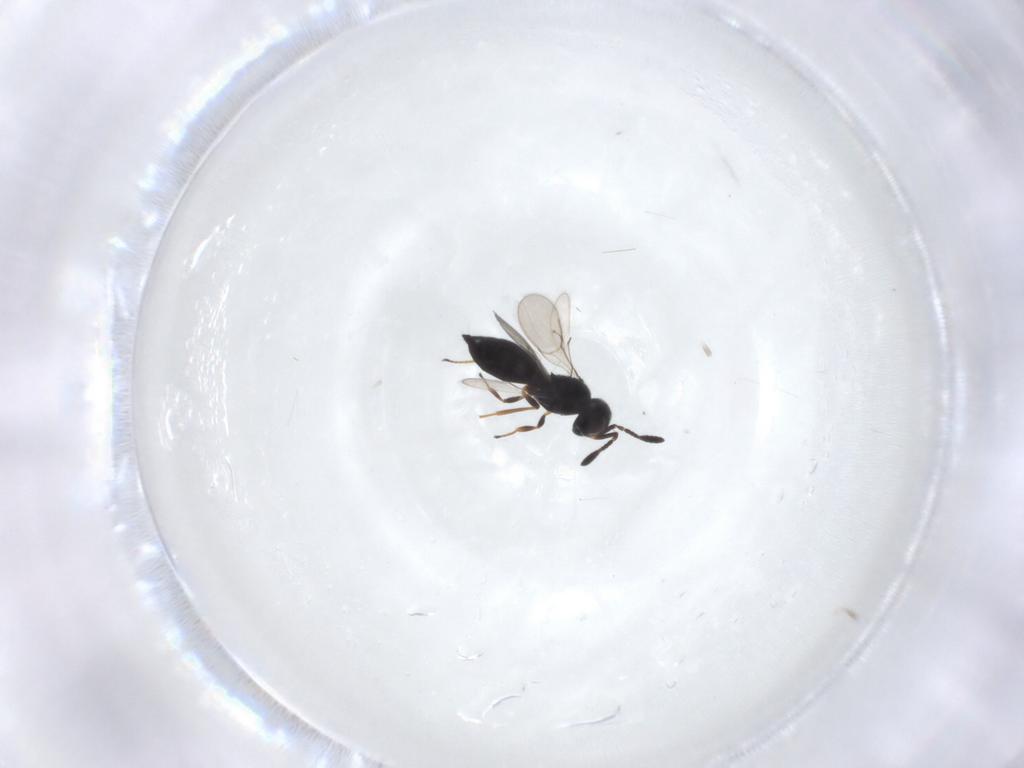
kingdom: Animalia
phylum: Arthropoda
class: Insecta
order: Hymenoptera
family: Scelionidae
